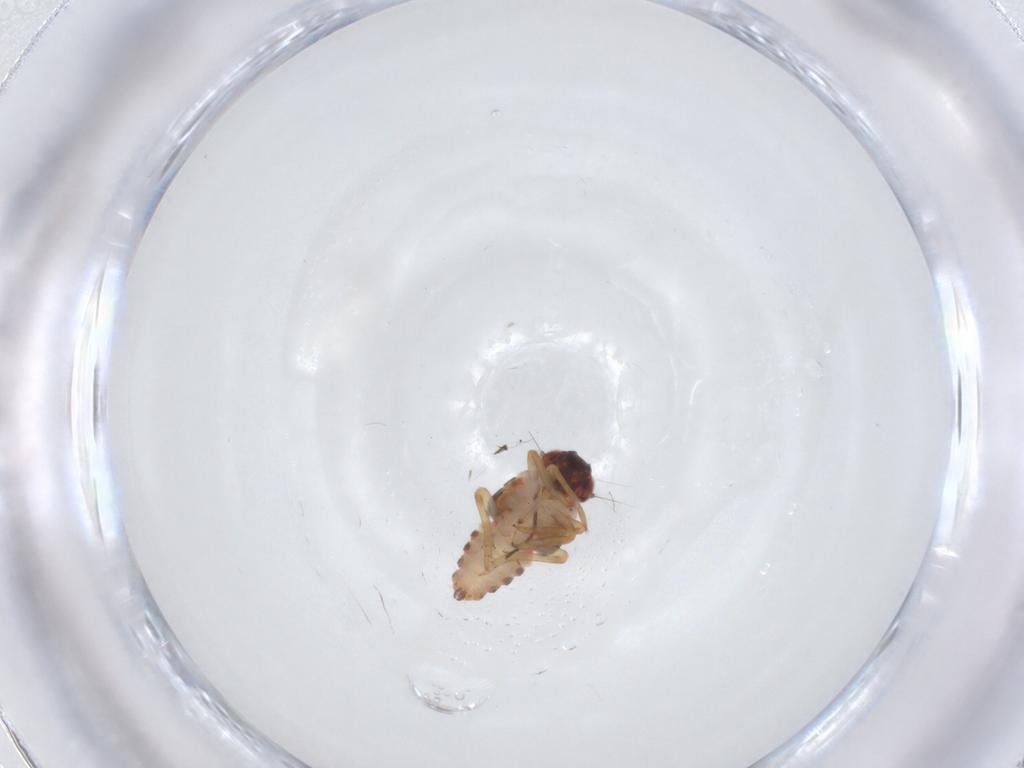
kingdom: Animalia
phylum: Arthropoda
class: Insecta
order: Hemiptera
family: Issidae
